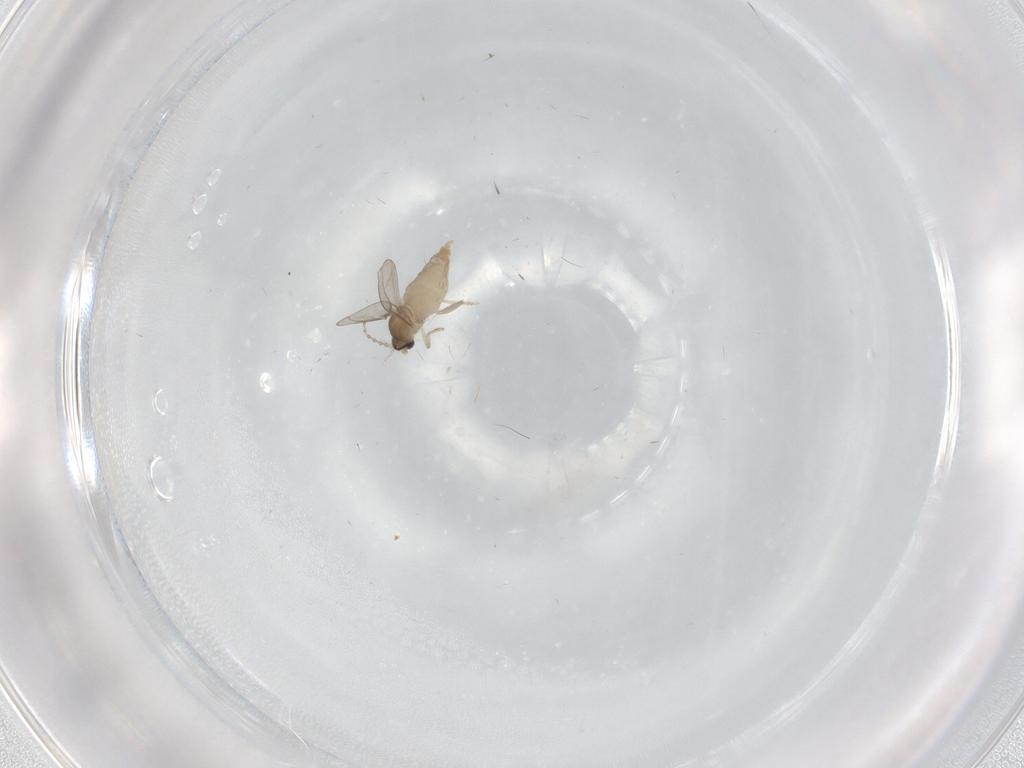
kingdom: Animalia
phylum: Arthropoda
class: Insecta
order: Diptera
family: Cecidomyiidae
